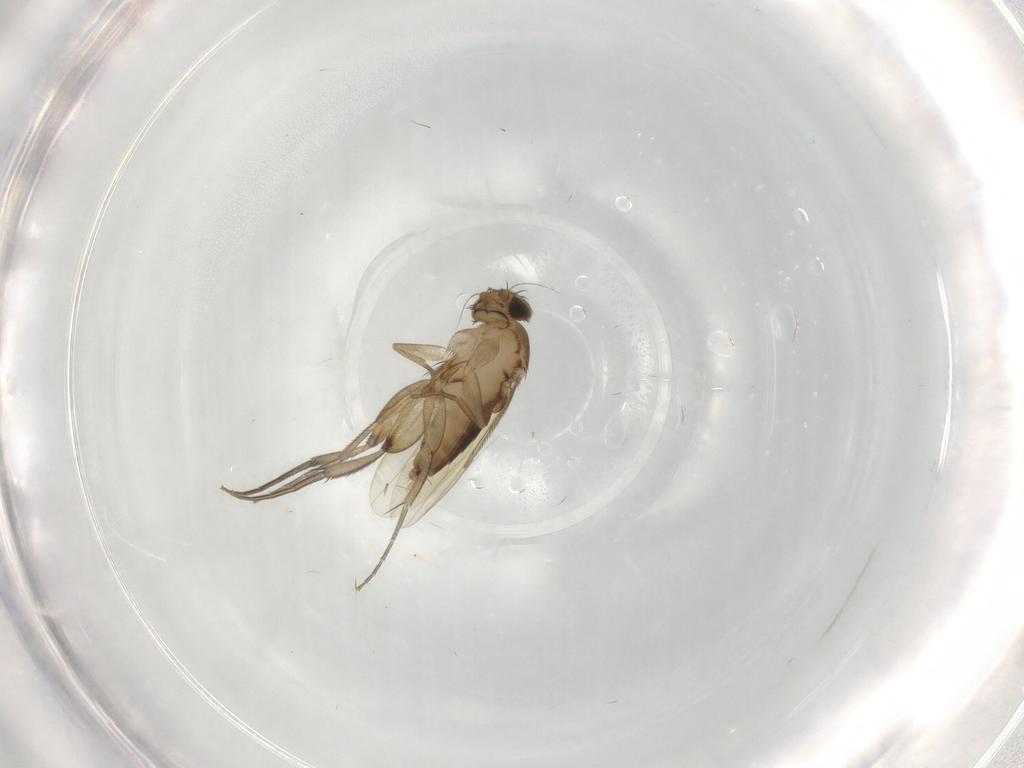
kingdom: Animalia
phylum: Arthropoda
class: Insecta
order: Diptera
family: Phoridae
